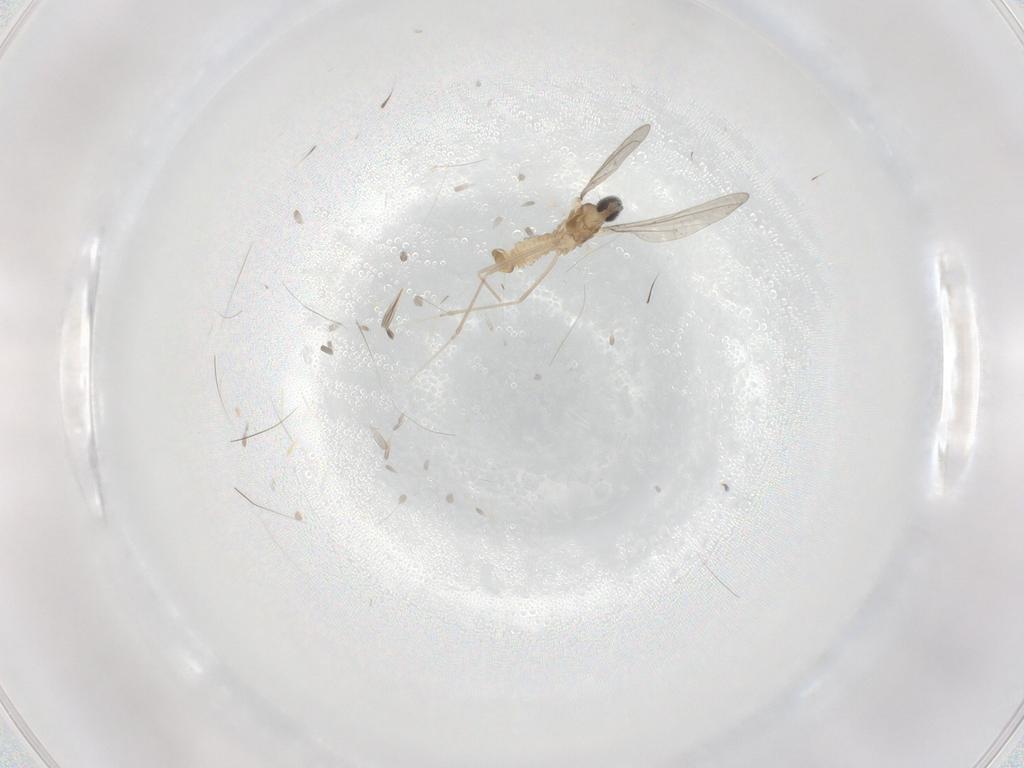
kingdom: Animalia
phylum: Arthropoda
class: Insecta
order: Diptera
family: Cecidomyiidae
